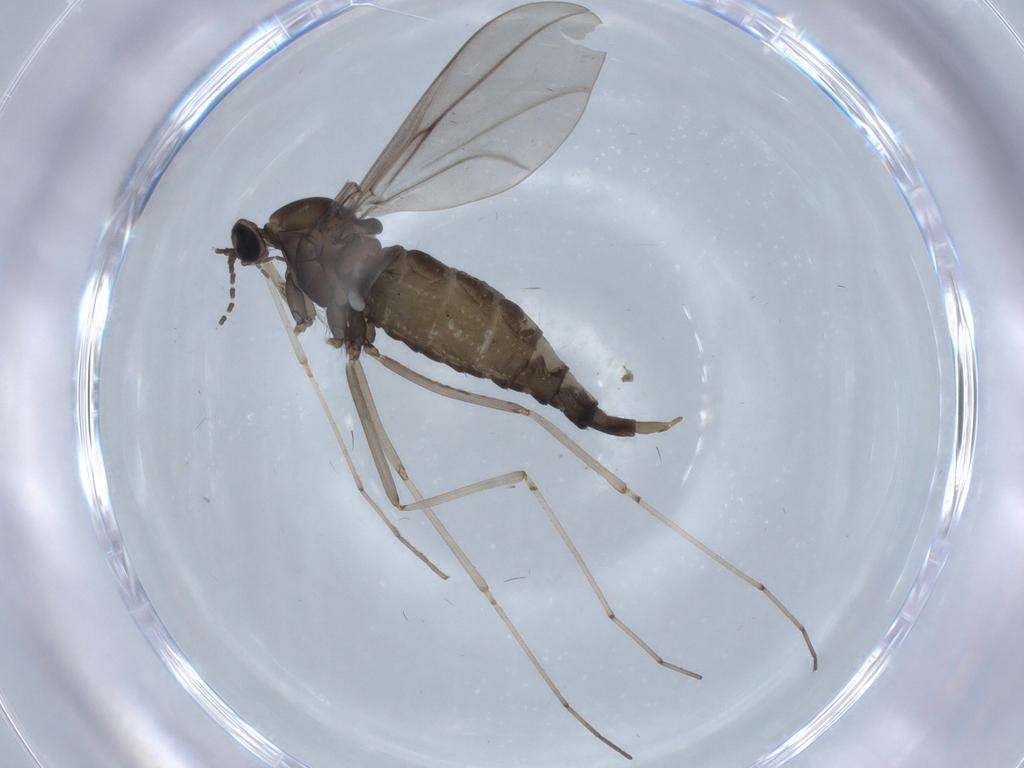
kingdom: Animalia
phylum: Arthropoda
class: Insecta
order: Diptera
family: Cecidomyiidae
